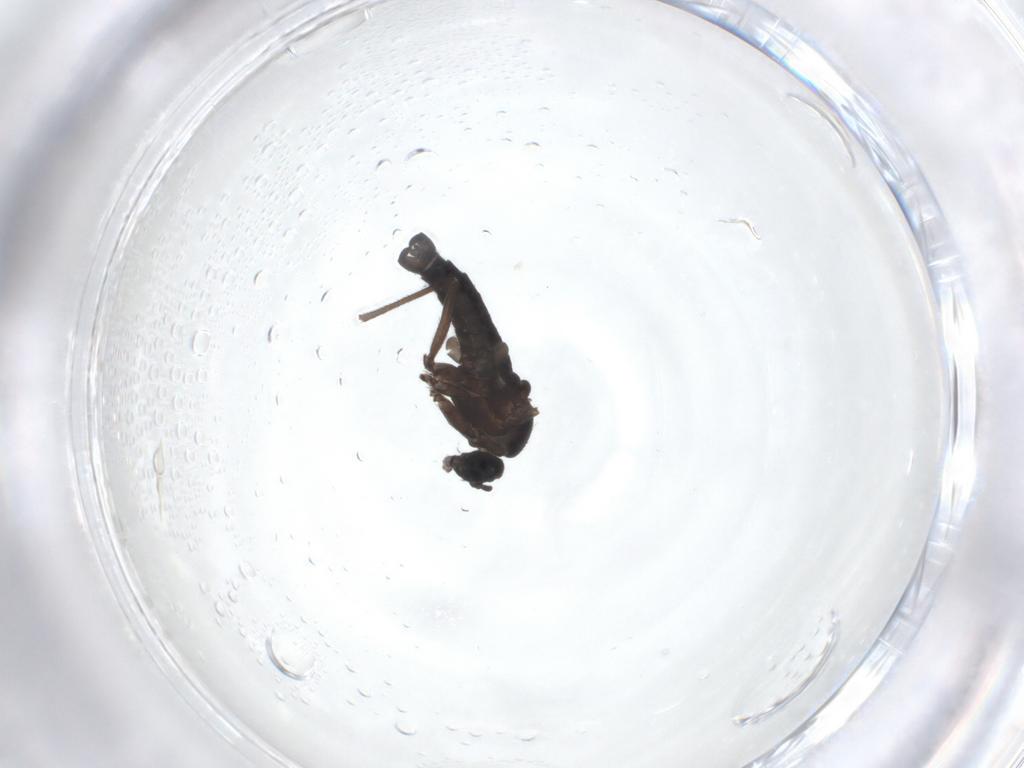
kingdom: Animalia
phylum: Arthropoda
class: Insecta
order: Diptera
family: Sciaridae
